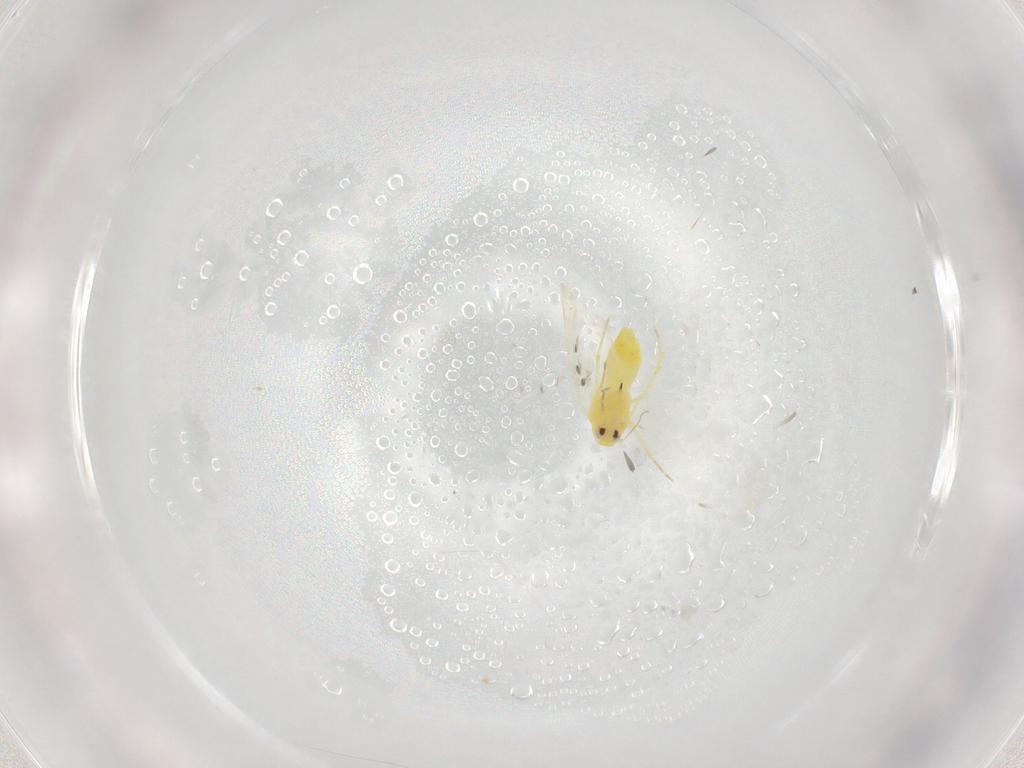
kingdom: Animalia
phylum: Arthropoda
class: Insecta
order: Hemiptera
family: Aleyrodidae
